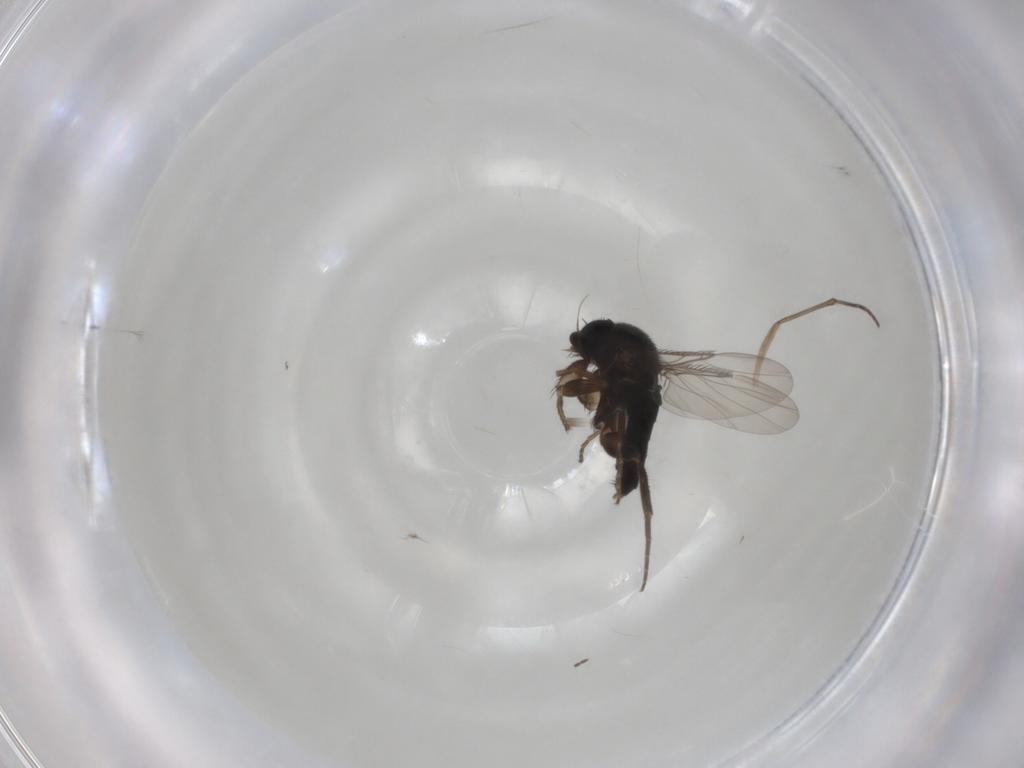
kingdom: Animalia
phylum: Arthropoda
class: Insecta
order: Diptera
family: Phoridae
